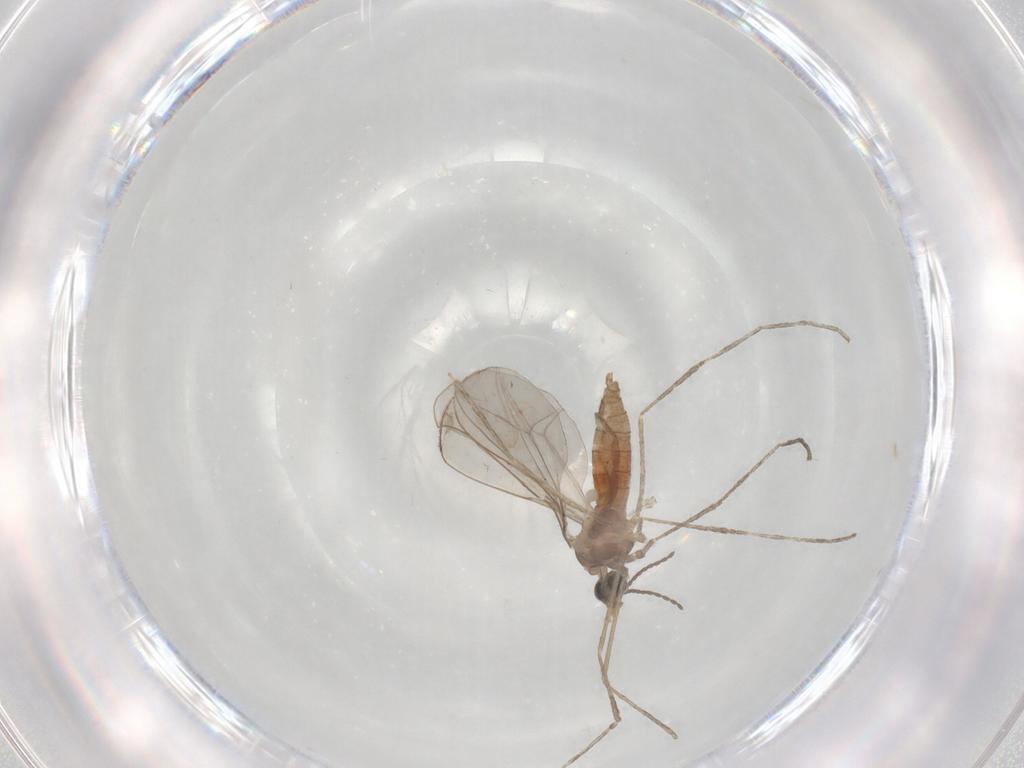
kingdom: Animalia
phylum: Arthropoda
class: Insecta
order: Diptera
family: Cecidomyiidae
